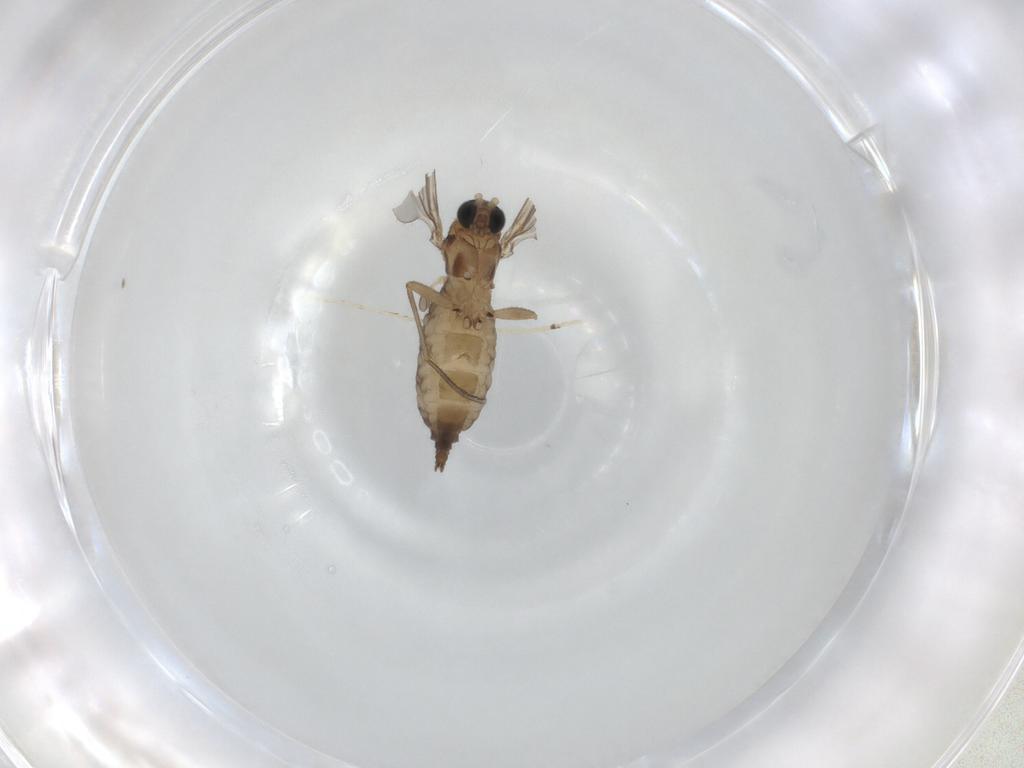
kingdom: Animalia
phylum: Arthropoda
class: Insecta
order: Diptera
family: Sciaridae
